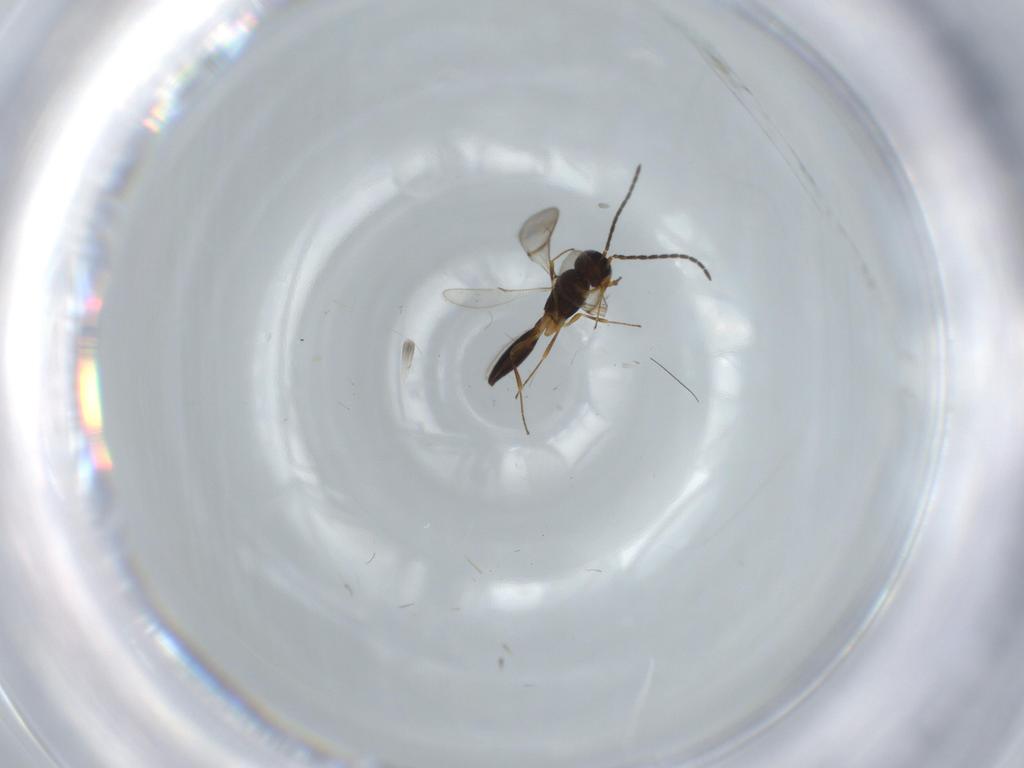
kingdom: Animalia
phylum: Arthropoda
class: Insecta
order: Hymenoptera
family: Scelionidae
